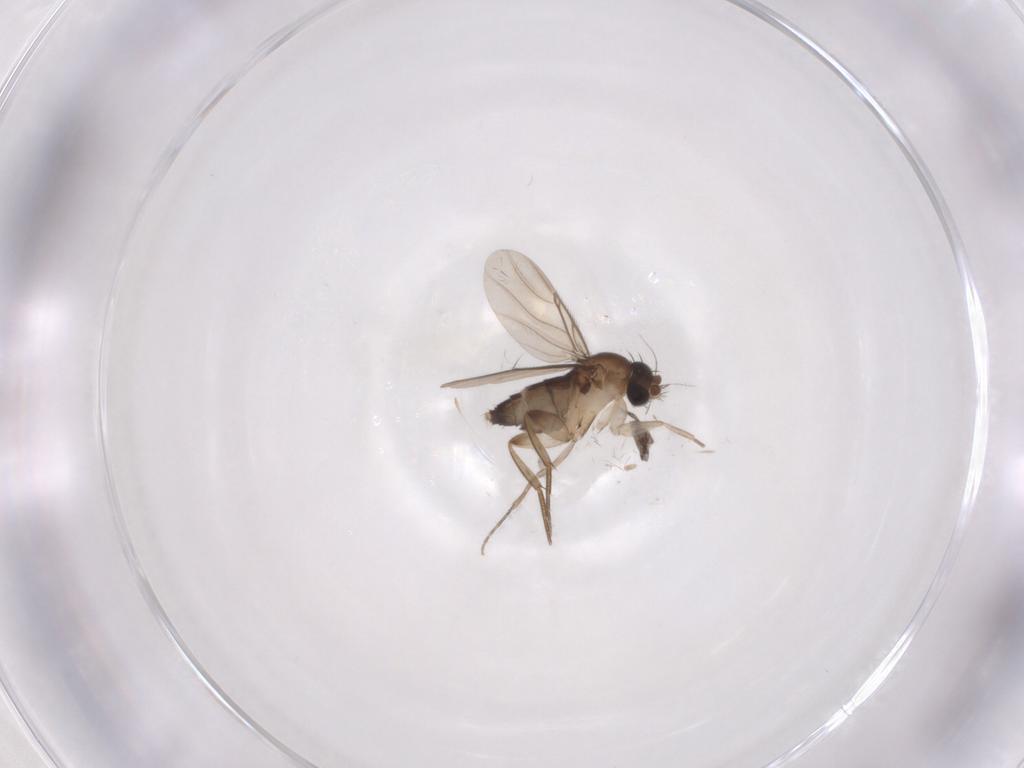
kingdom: Animalia
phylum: Arthropoda
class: Insecta
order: Diptera
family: Phoridae
